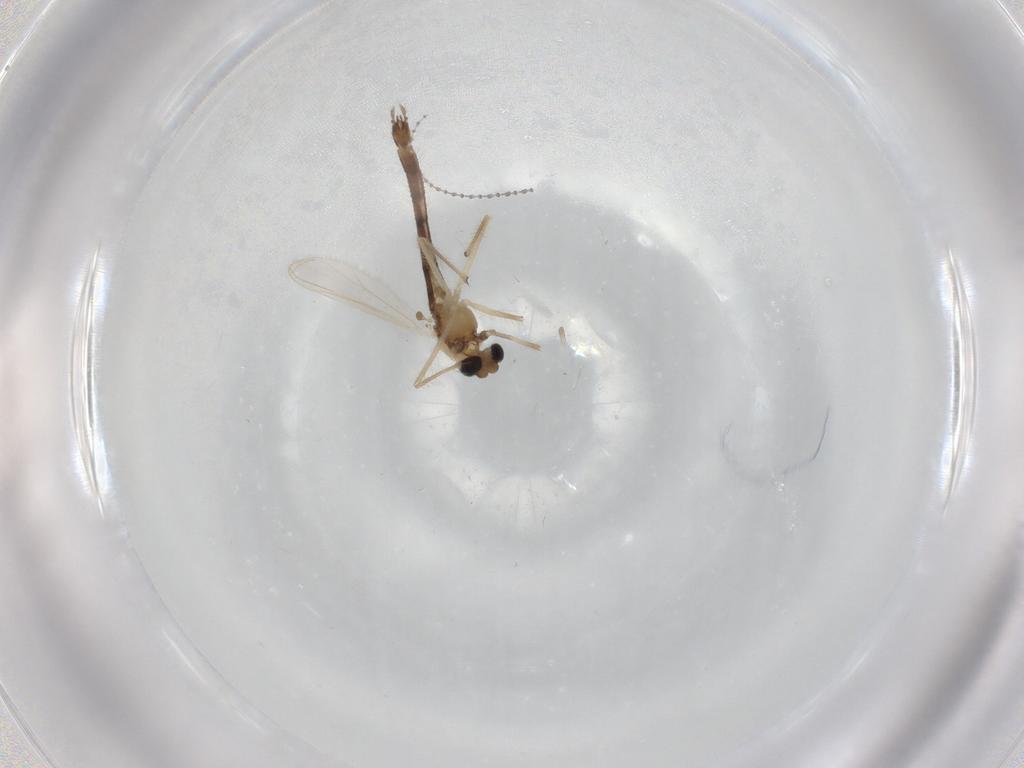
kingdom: Animalia
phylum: Arthropoda
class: Insecta
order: Diptera
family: Chironomidae
